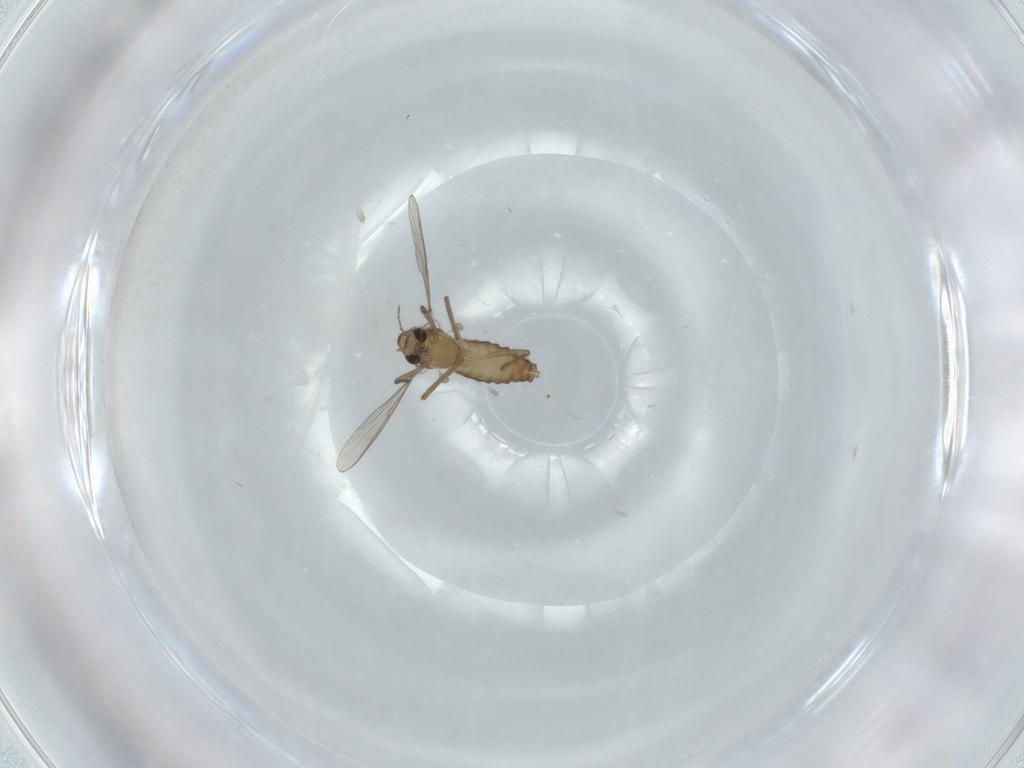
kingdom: Animalia
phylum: Arthropoda
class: Insecta
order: Diptera
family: Chironomidae
